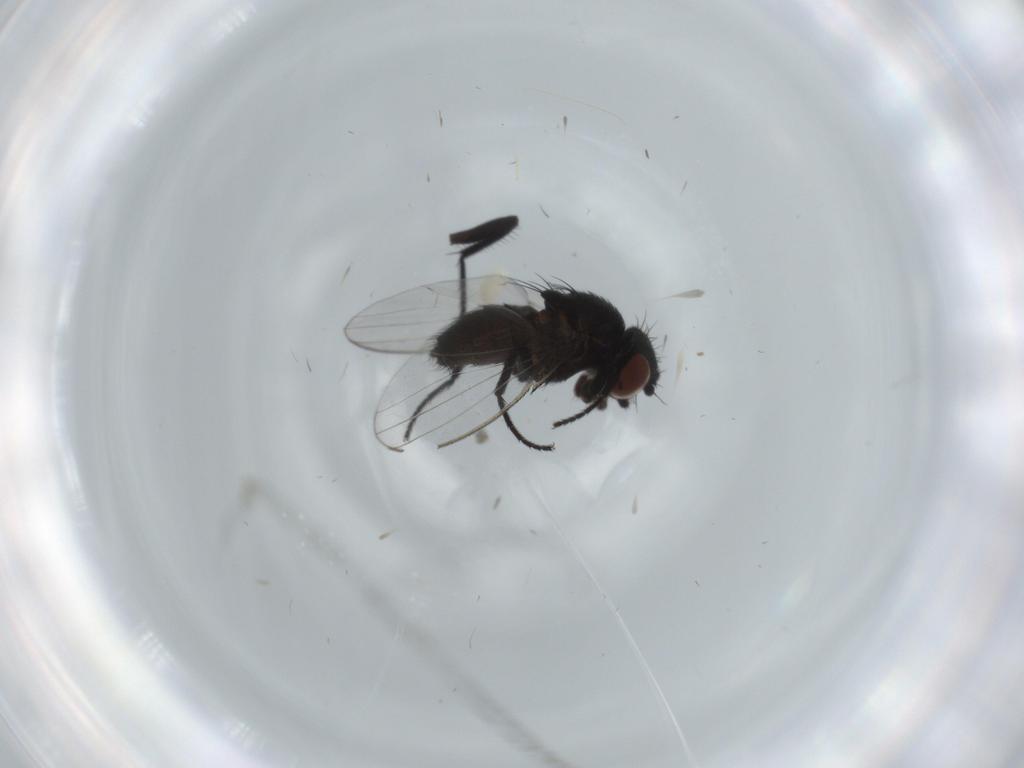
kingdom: Animalia
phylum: Arthropoda
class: Insecta
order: Diptera
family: Milichiidae
